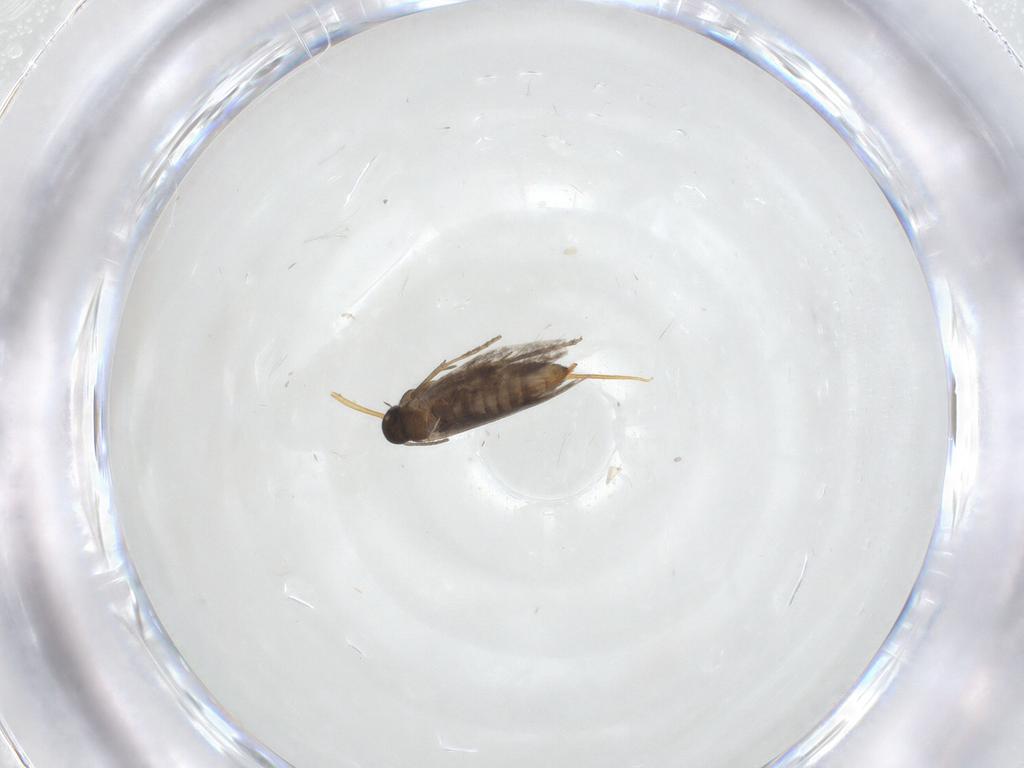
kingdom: Animalia
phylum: Arthropoda
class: Insecta
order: Lepidoptera
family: Heliozelidae
